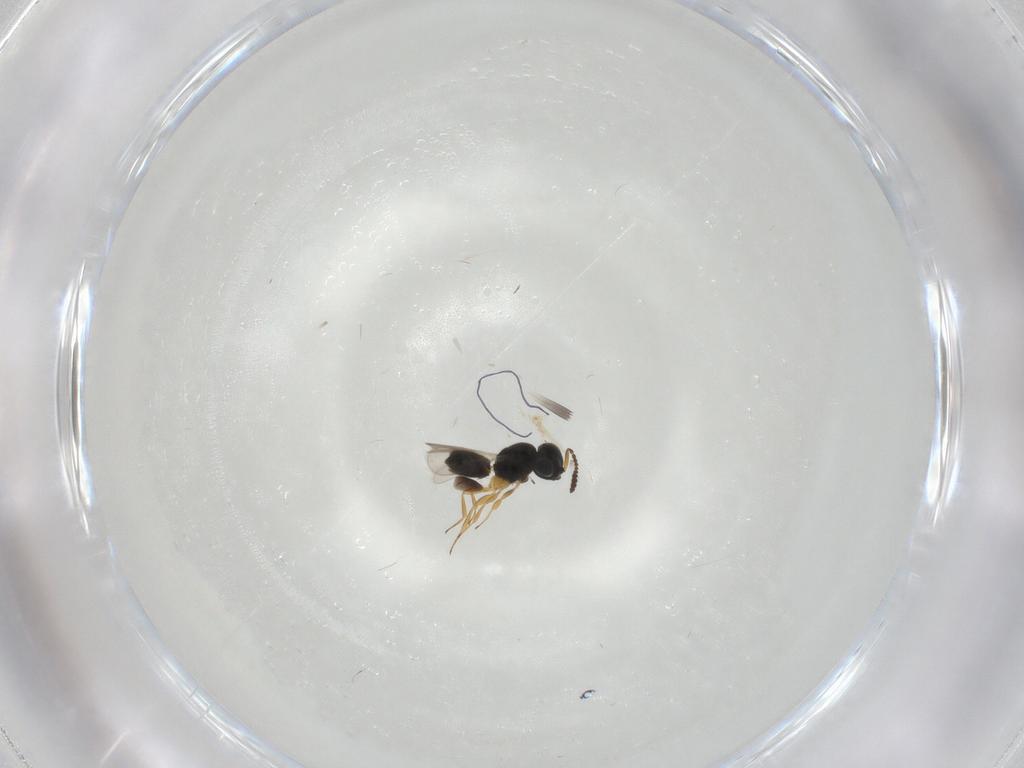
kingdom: Animalia
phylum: Arthropoda
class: Insecta
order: Hymenoptera
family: Scelionidae
